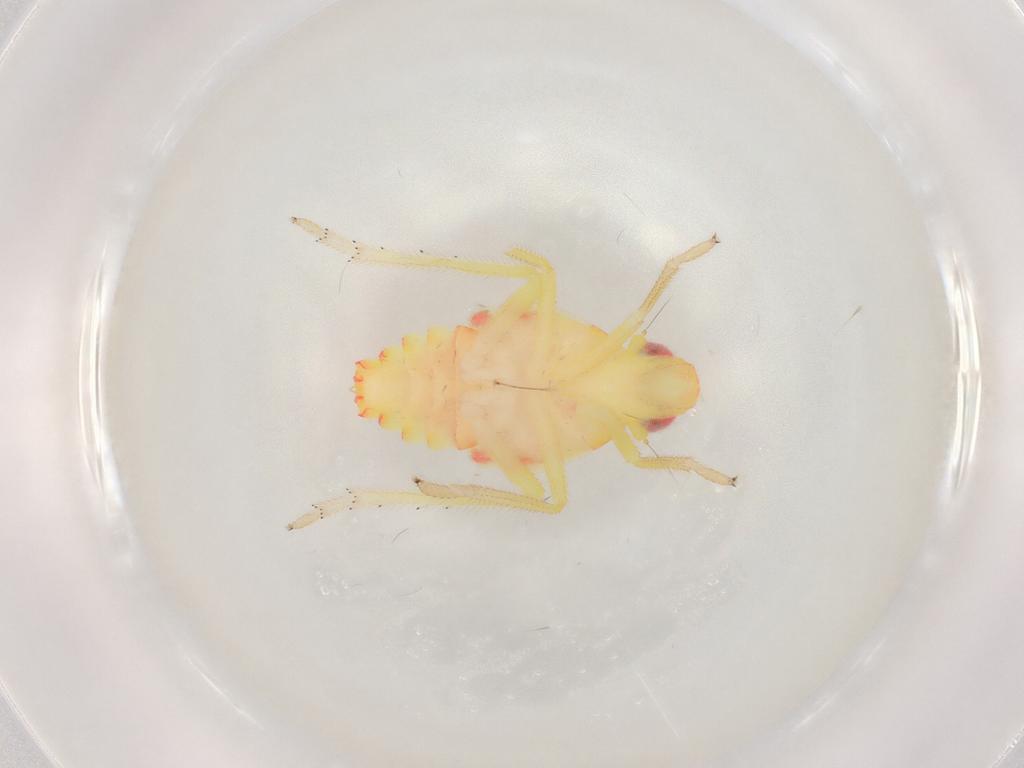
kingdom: Animalia
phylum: Arthropoda
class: Insecta
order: Hemiptera
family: Tropiduchidae
